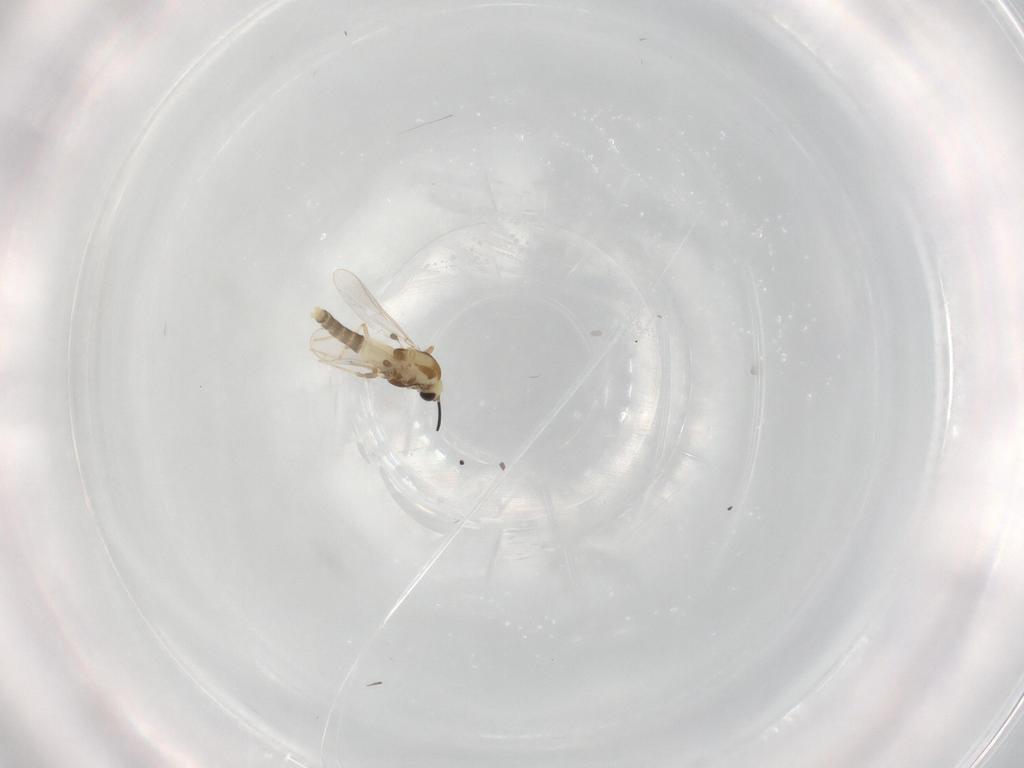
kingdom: Animalia
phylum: Arthropoda
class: Insecta
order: Diptera
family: Chironomidae
